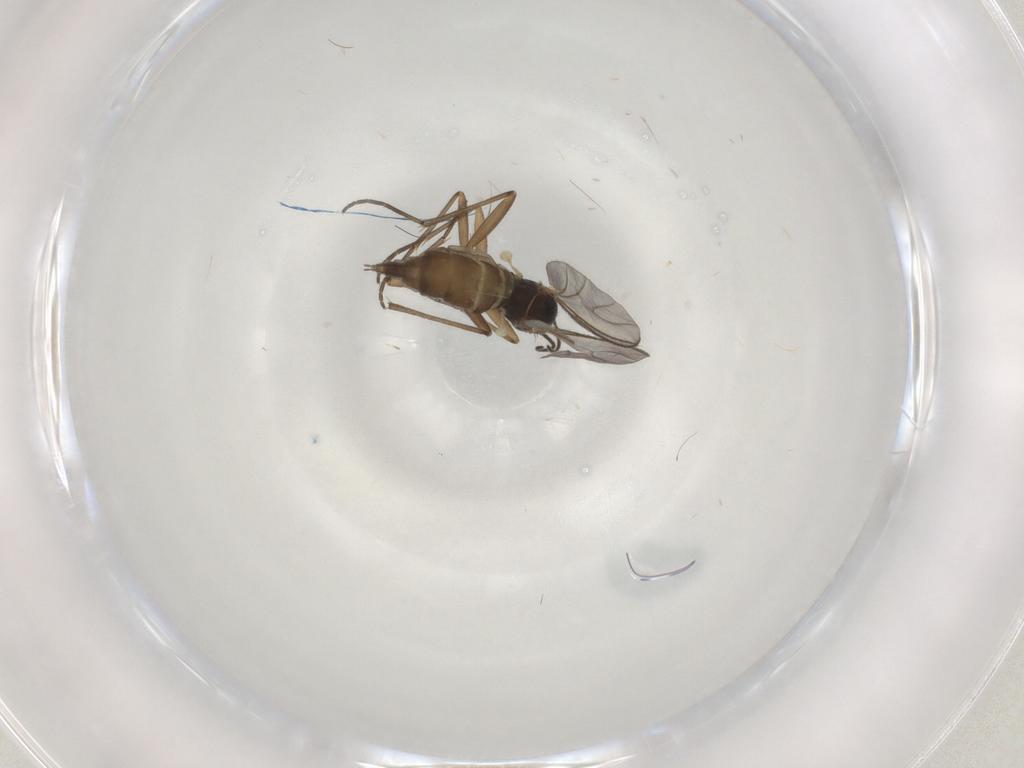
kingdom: Animalia
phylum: Arthropoda
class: Insecta
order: Diptera
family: Sciaridae
